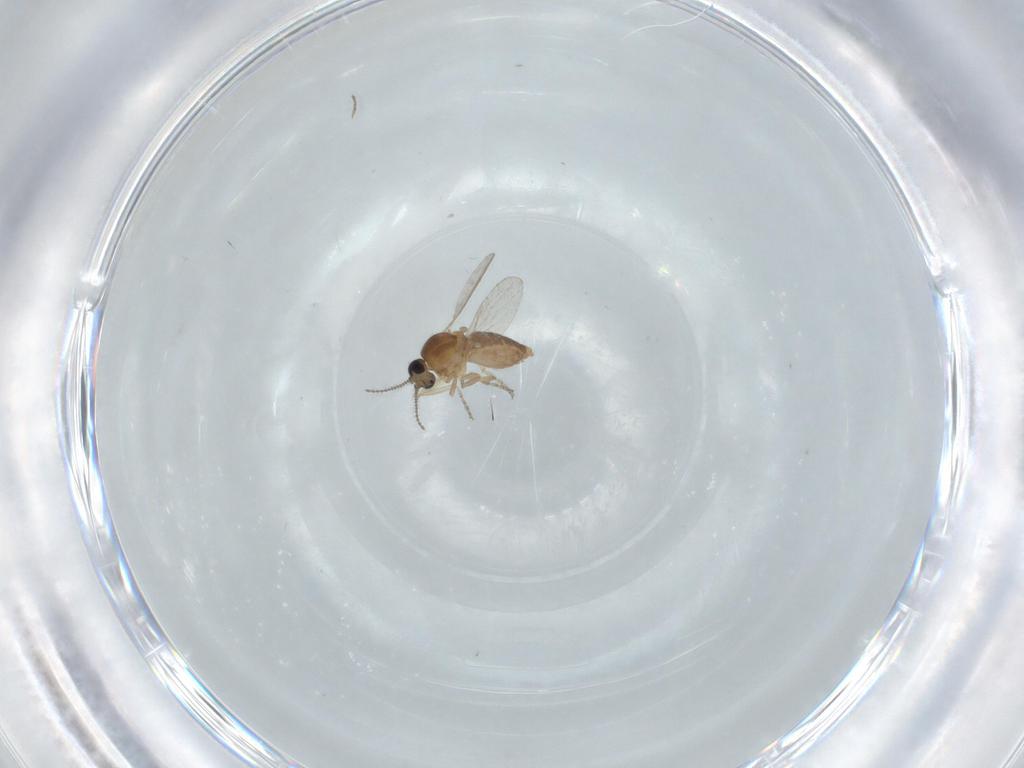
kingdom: Animalia
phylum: Arthropoda
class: Insecta
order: Diptera
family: Ceratopogonidae
